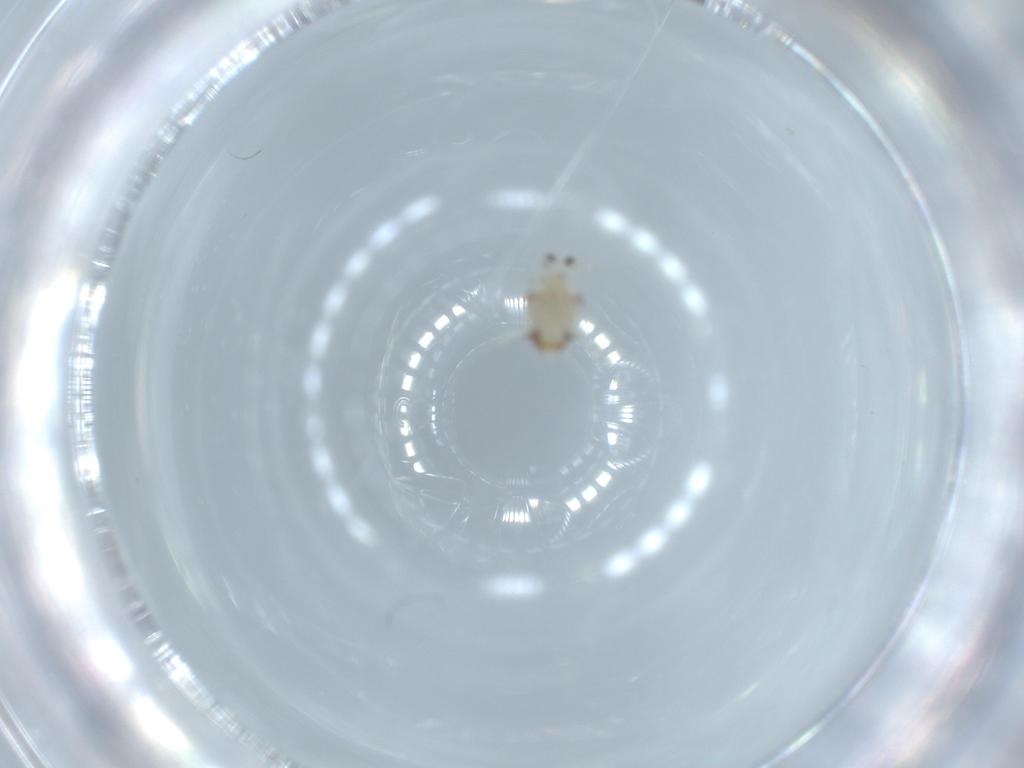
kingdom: Animalia
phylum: Arthropoda
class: Insecta
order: Hemiptera
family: Nogodinidae
